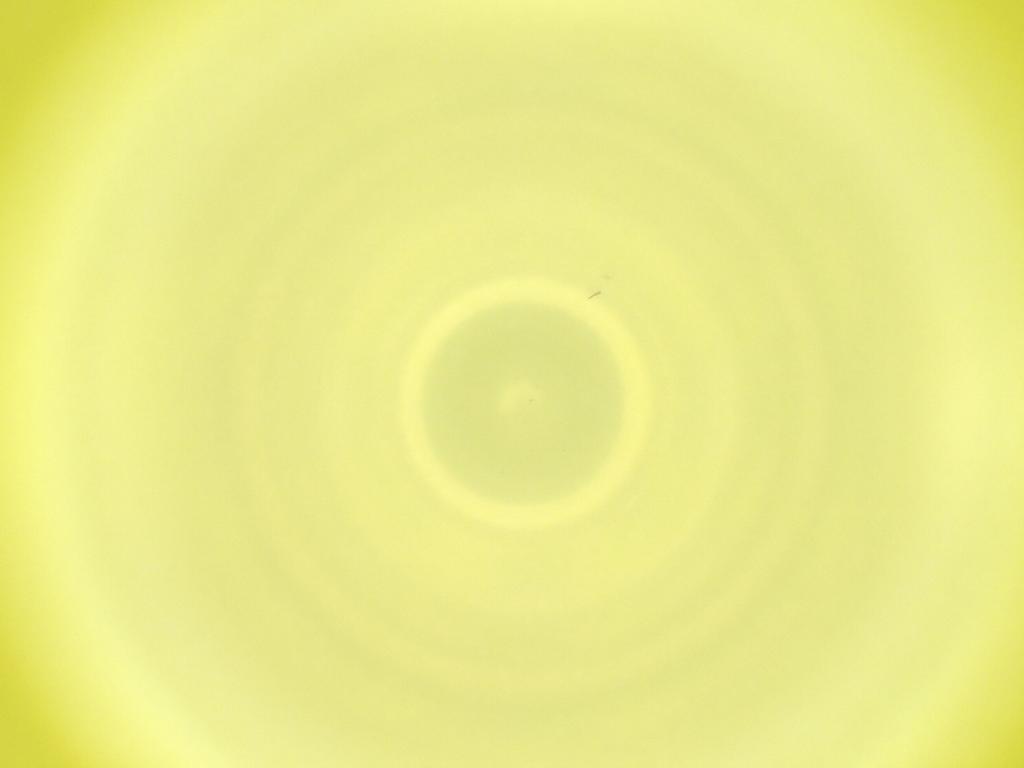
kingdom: Animalia
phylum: Arthropoda
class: Insecta
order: Diptera
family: Cecidomyiidae
